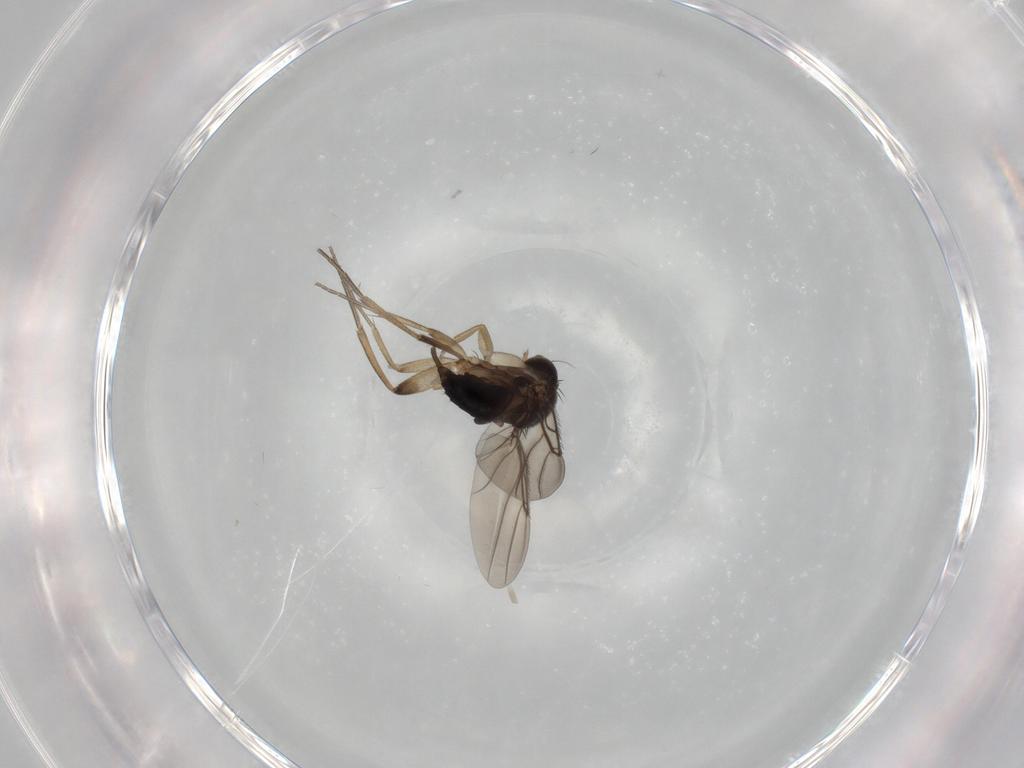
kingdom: Animalia
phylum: Arthropoda
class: Insecta
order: Diptera
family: Phoridae
